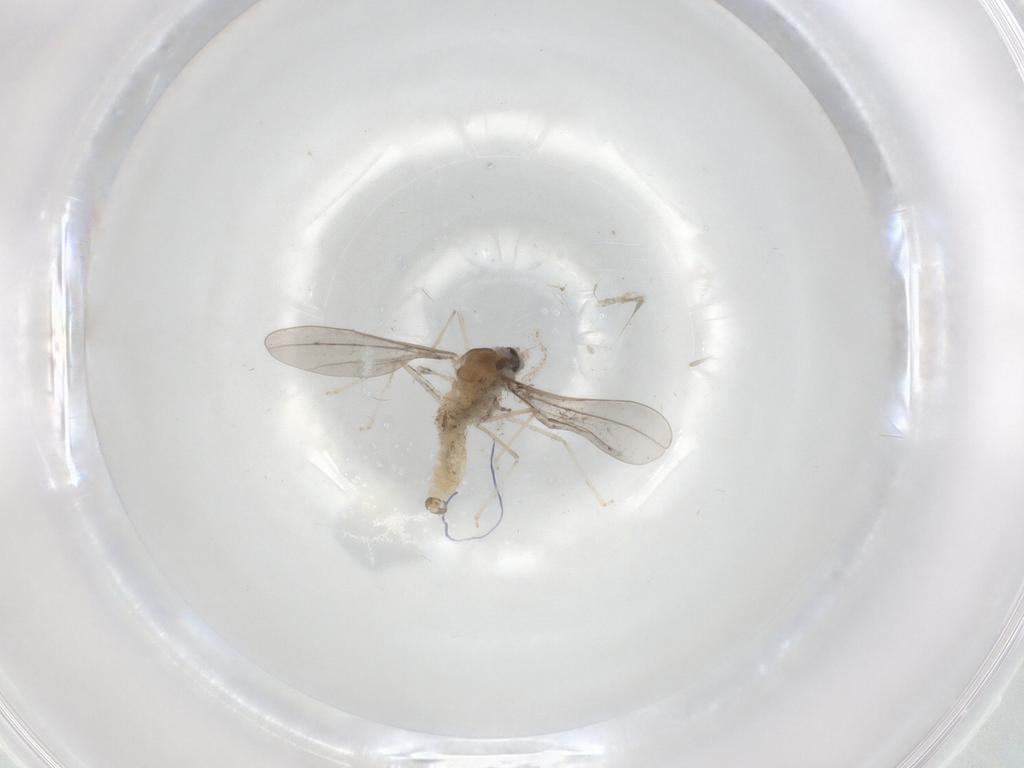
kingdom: Animalia
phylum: Arthropoda
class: Insecta
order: Diptera
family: Cecidomyiidae
